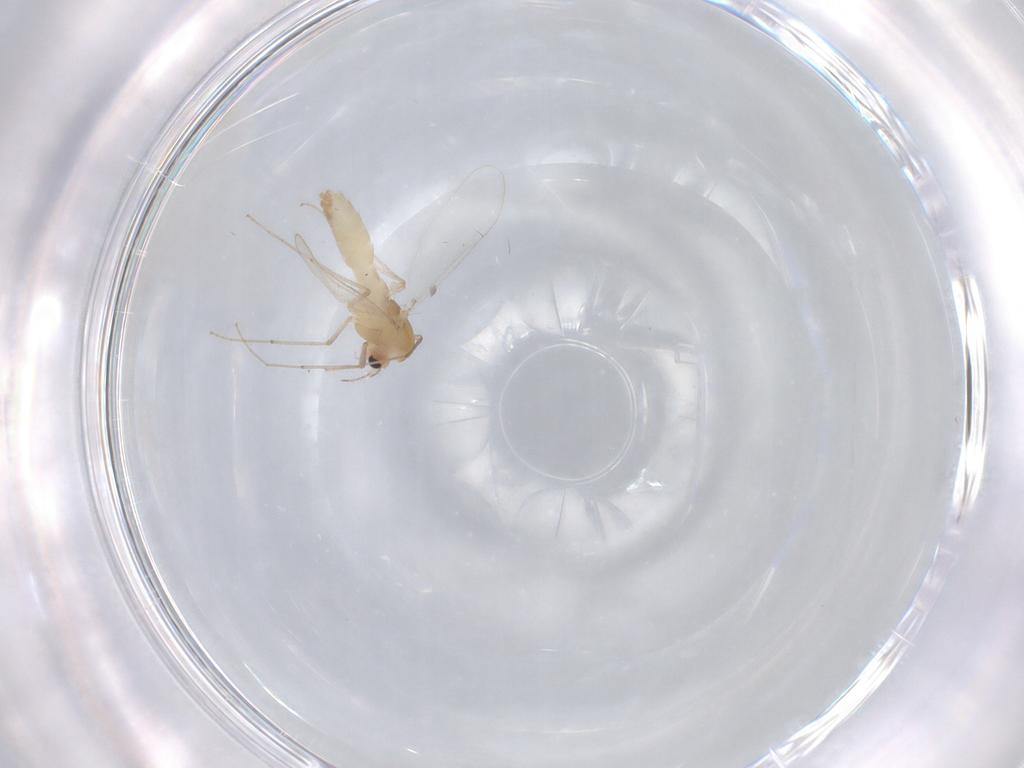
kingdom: Animalia
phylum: Arthropoda
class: Insecta
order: Diptera
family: Chironomidae
